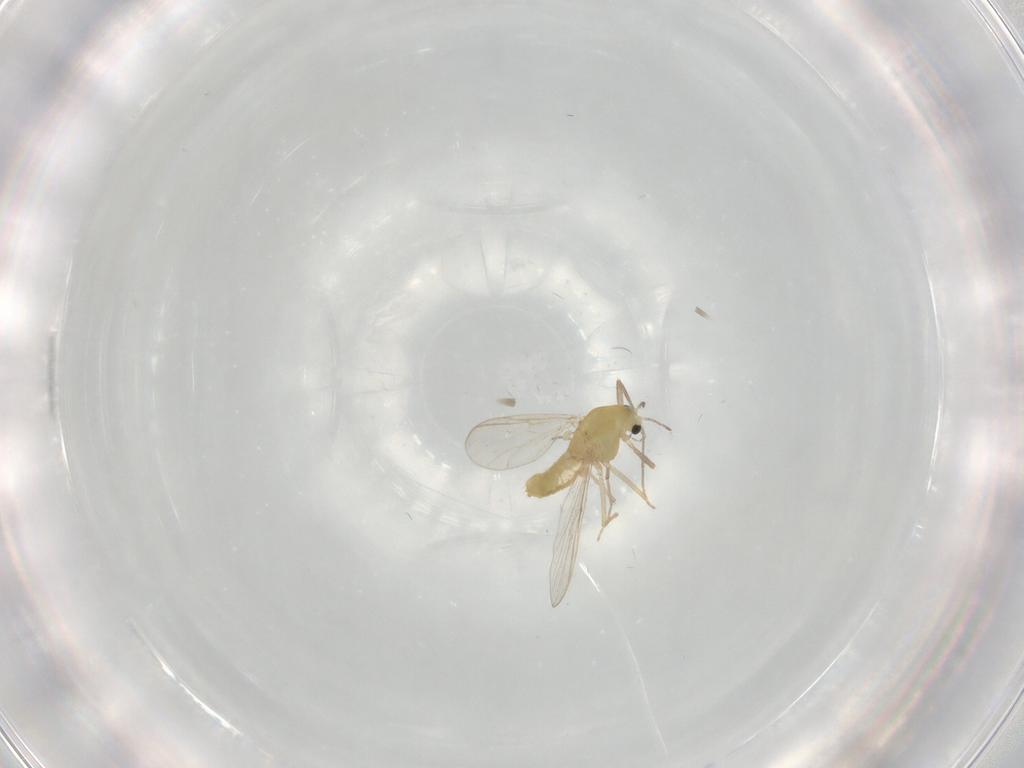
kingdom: Animalia
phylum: Arthropoda
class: Insecta
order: Diptera
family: Chironomidae
